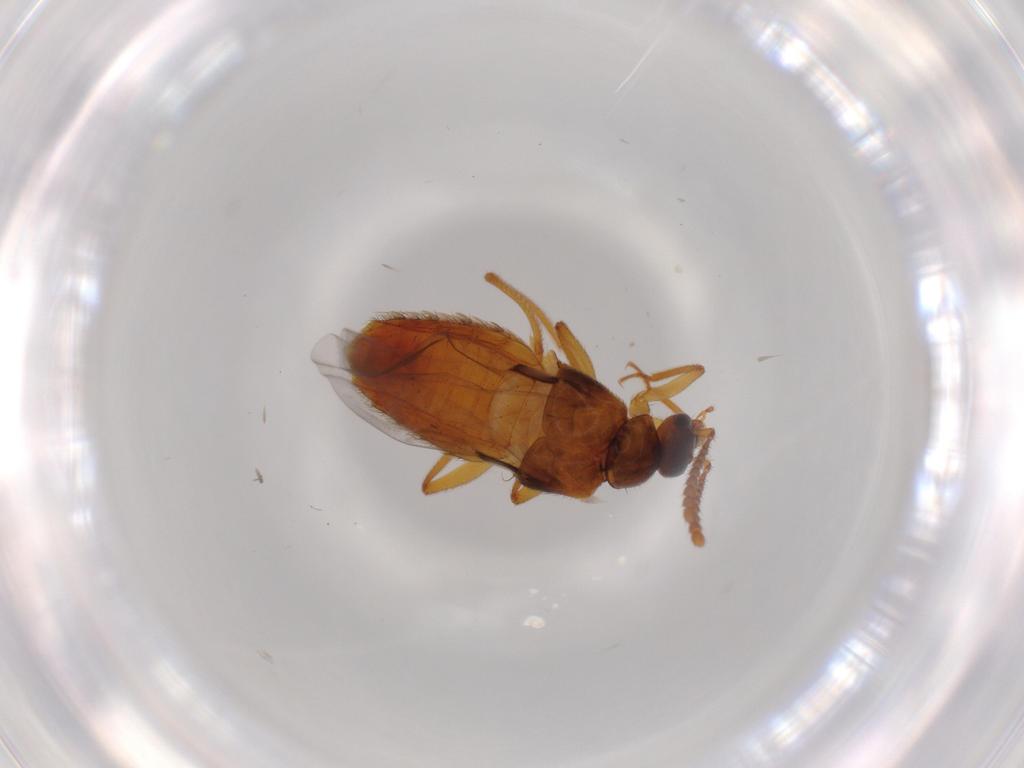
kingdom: Animalia
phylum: Arthropoda
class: Insecta
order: Coleoptera
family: Staphylinidae
